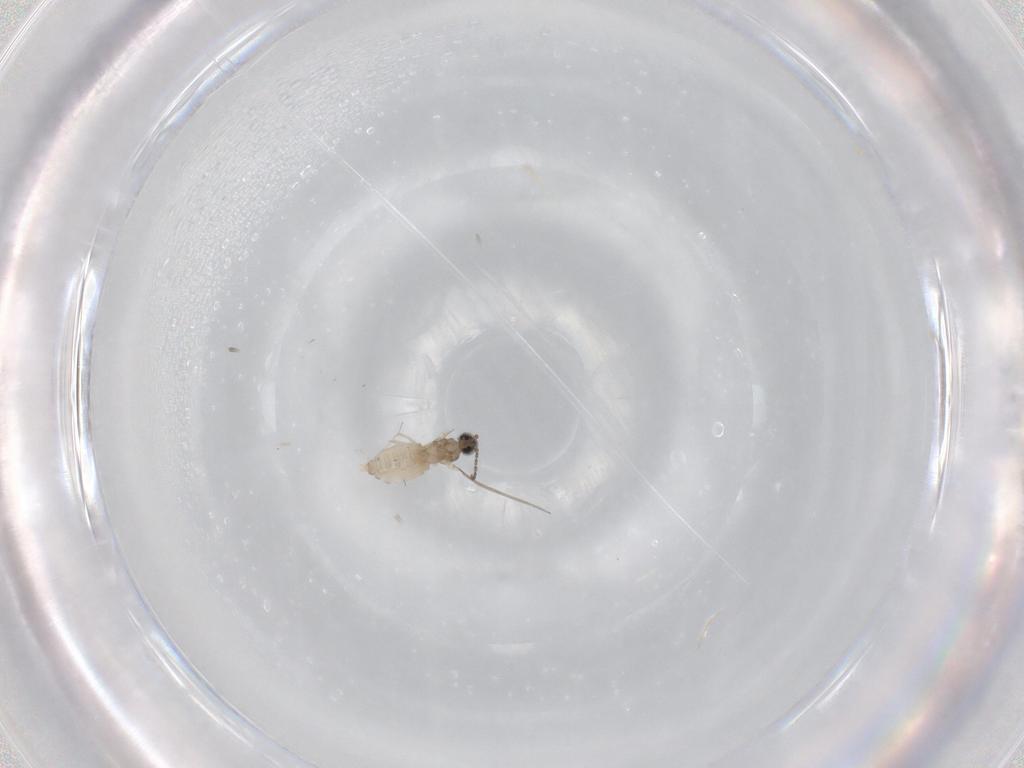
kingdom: Animalia
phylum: Arthropoda
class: Insecta
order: Diptera
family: Cecidomyiidae
